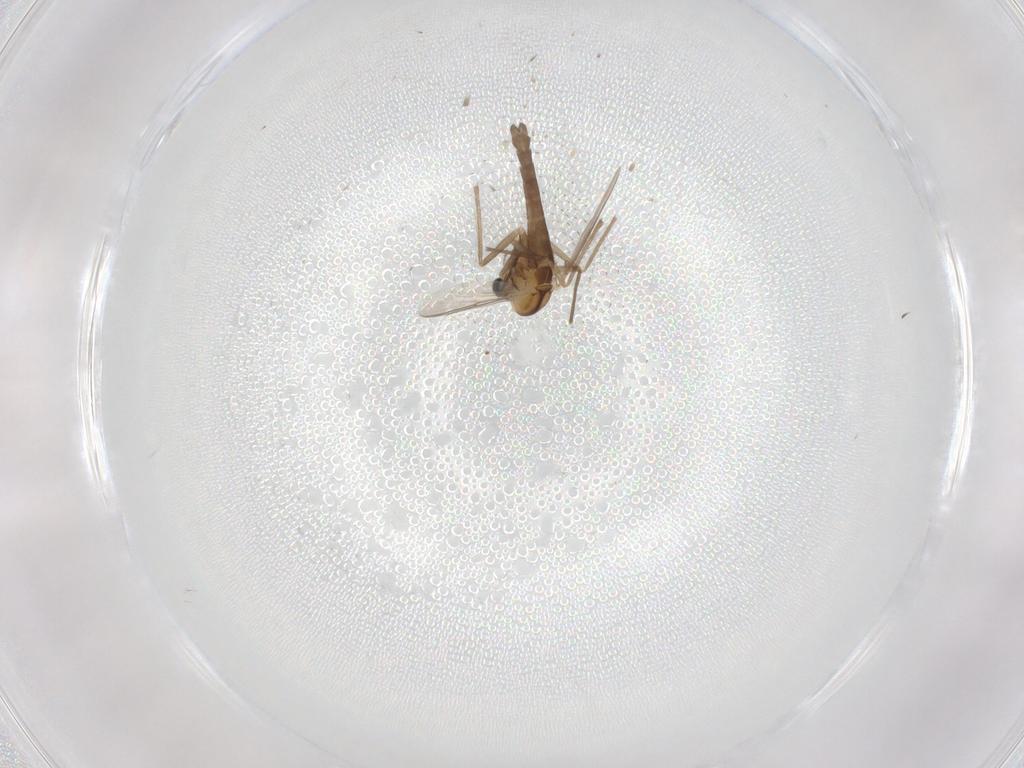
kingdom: Animalia
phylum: Arthropoda
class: Insecta
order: Diptera
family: Chironomidae
